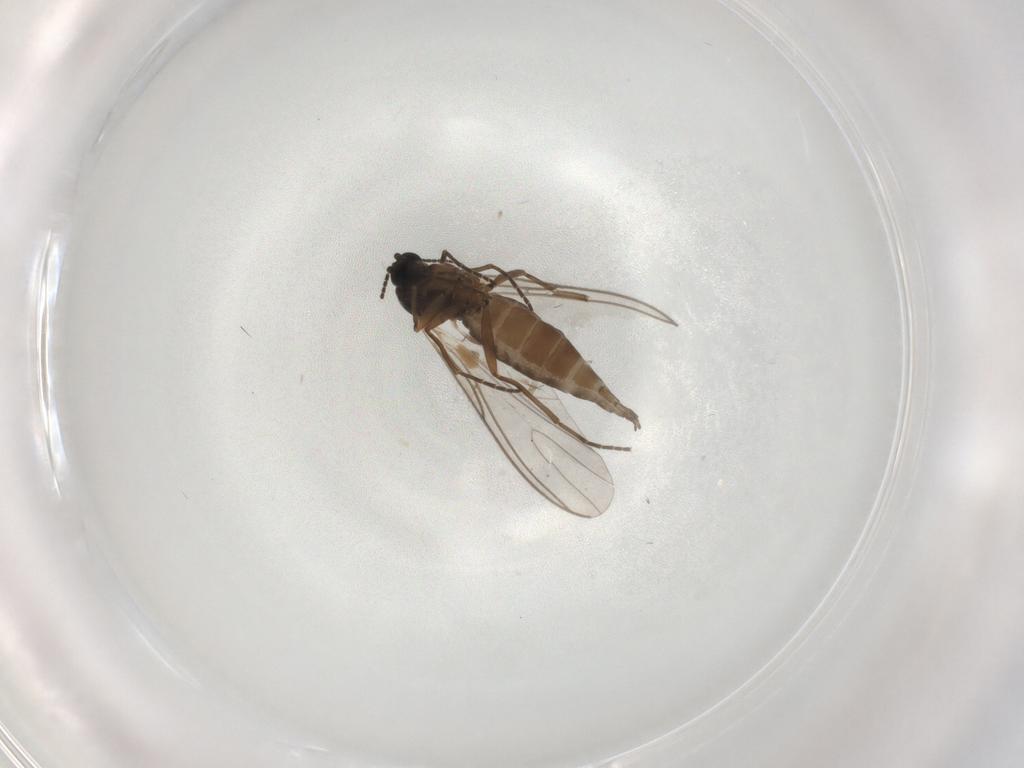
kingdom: Animalia
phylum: Arthropoda
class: Insecta
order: Diptera
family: Sciaridae
